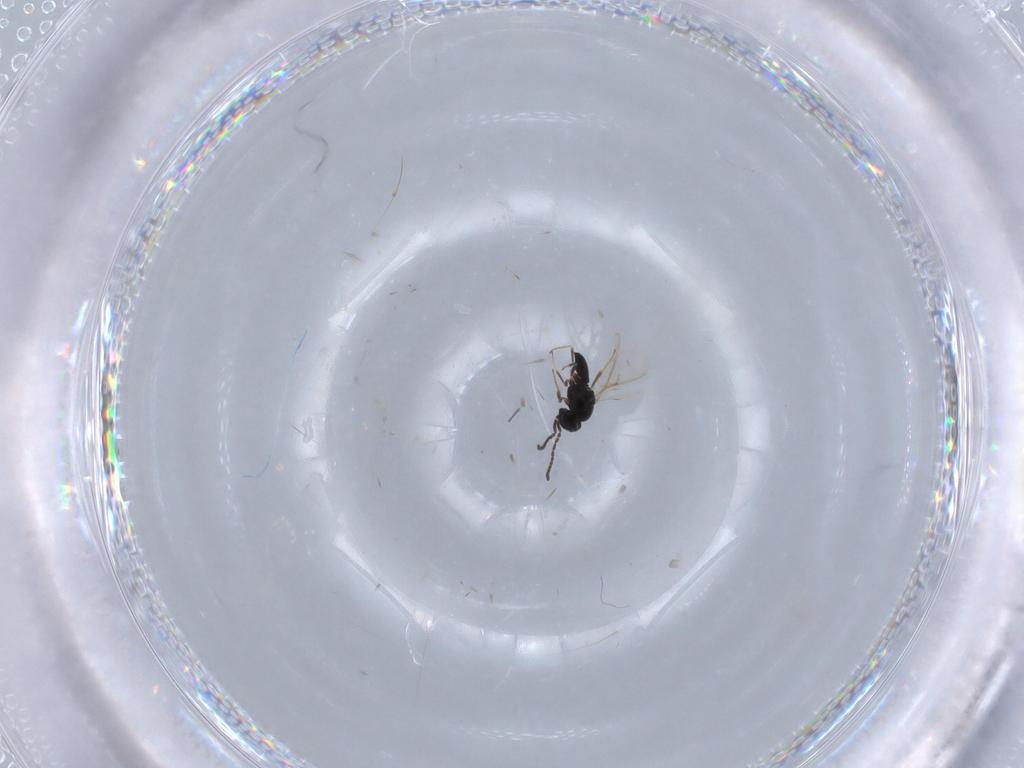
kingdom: Animalia
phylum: Arthropoda
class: Insecta
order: Hymenoptera
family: Scelionidae
